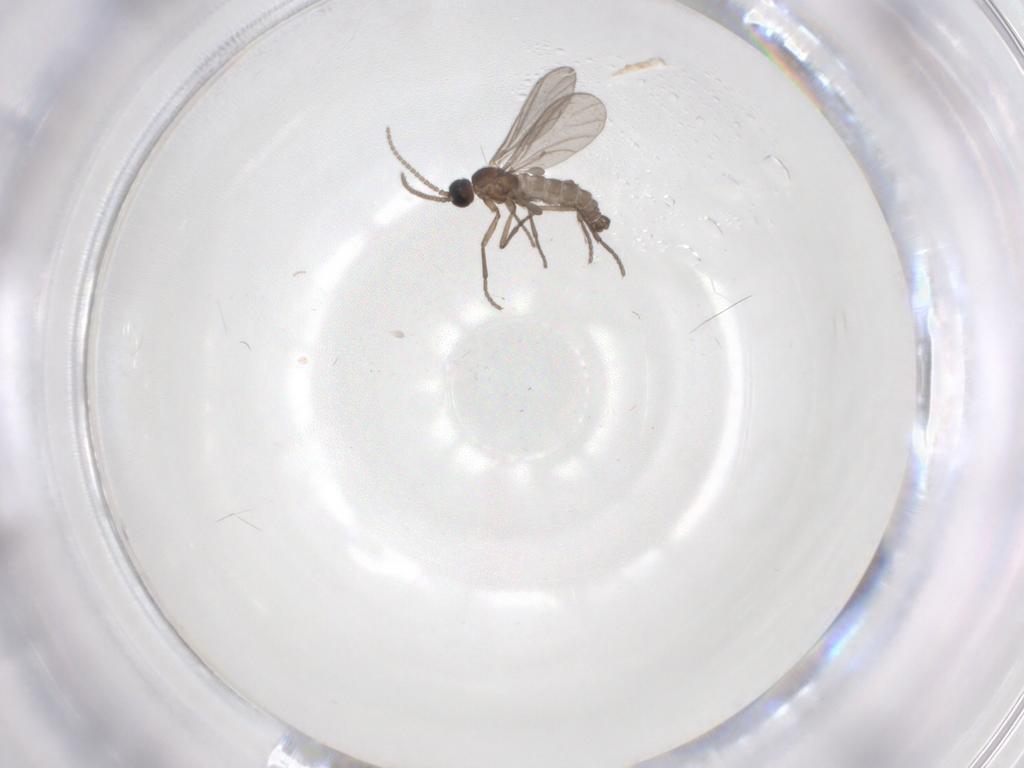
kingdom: Animalia
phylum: Arthropoda
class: Insecta
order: Diptera
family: Sciaridae
